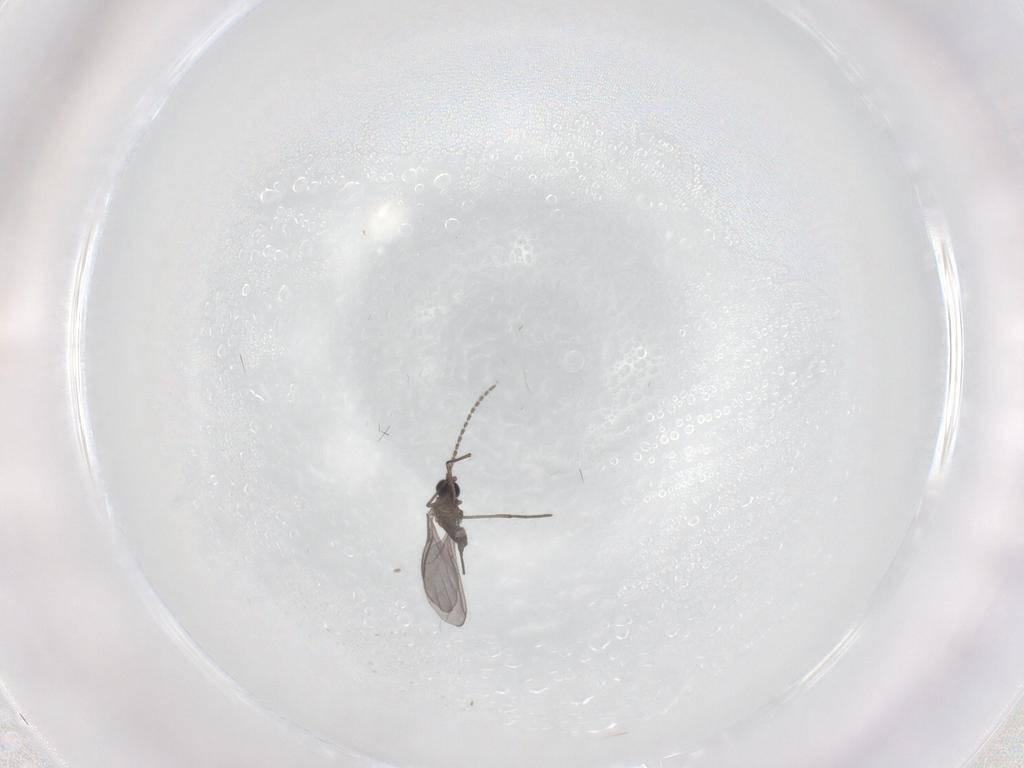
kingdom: Animalia
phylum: Arthropoda
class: Insecta
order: Diptera
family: Sciaridae
